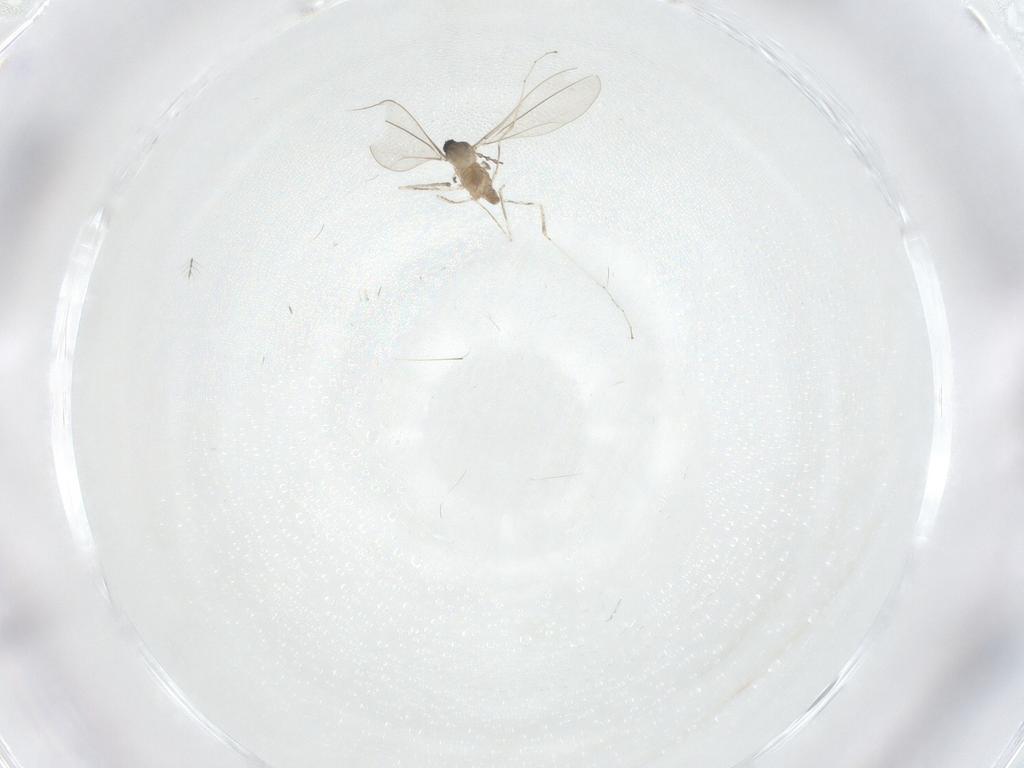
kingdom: Animalia
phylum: Arthropoda
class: Insecta
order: Diptera
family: Cecidomyiidae
